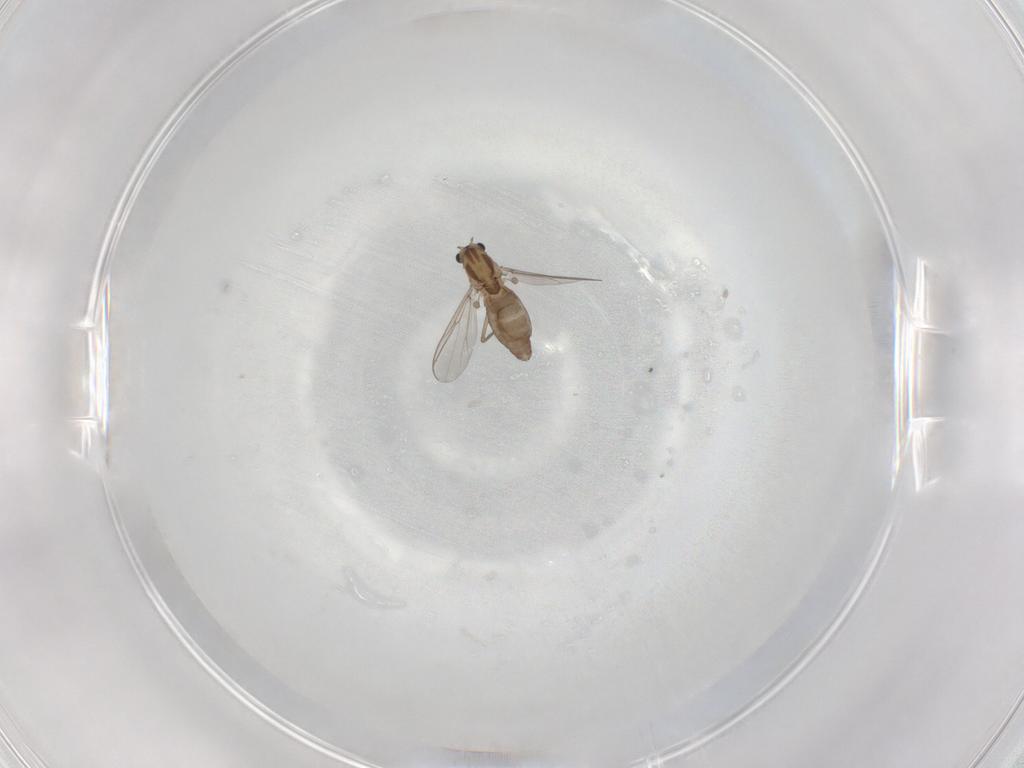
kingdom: Animalia
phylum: Arthropoda
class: Insecta
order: Diptera
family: Chironomidae
